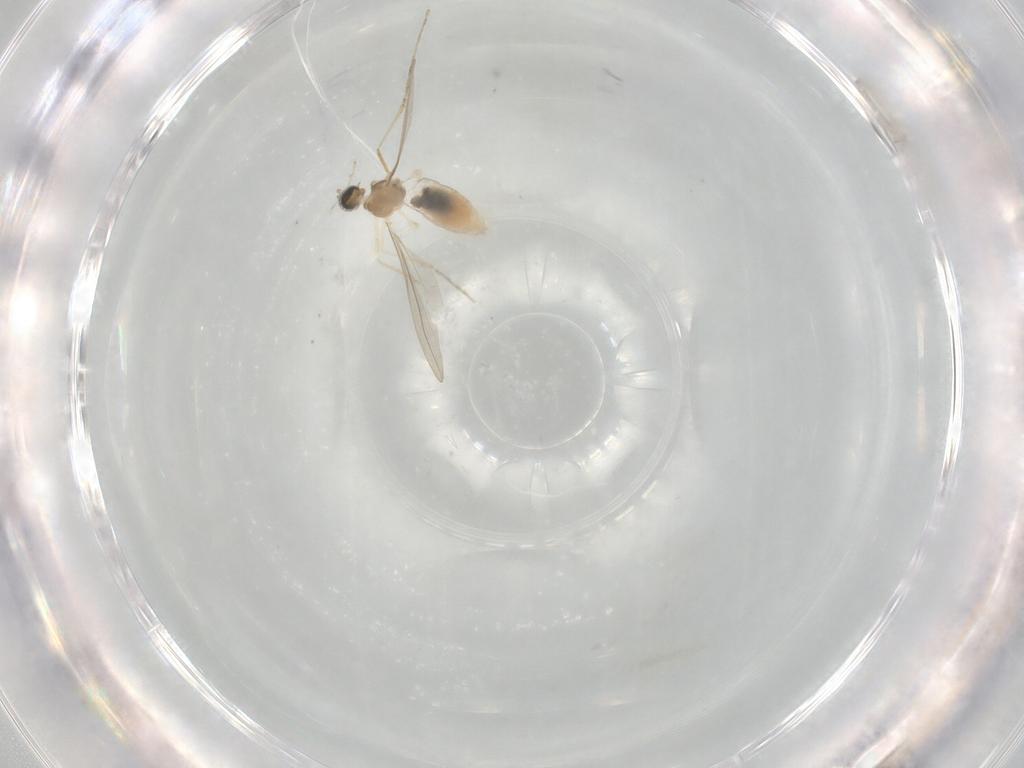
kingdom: Animalia
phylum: Arthropoda
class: Insecta
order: Diptera
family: Cecidomyiidae
